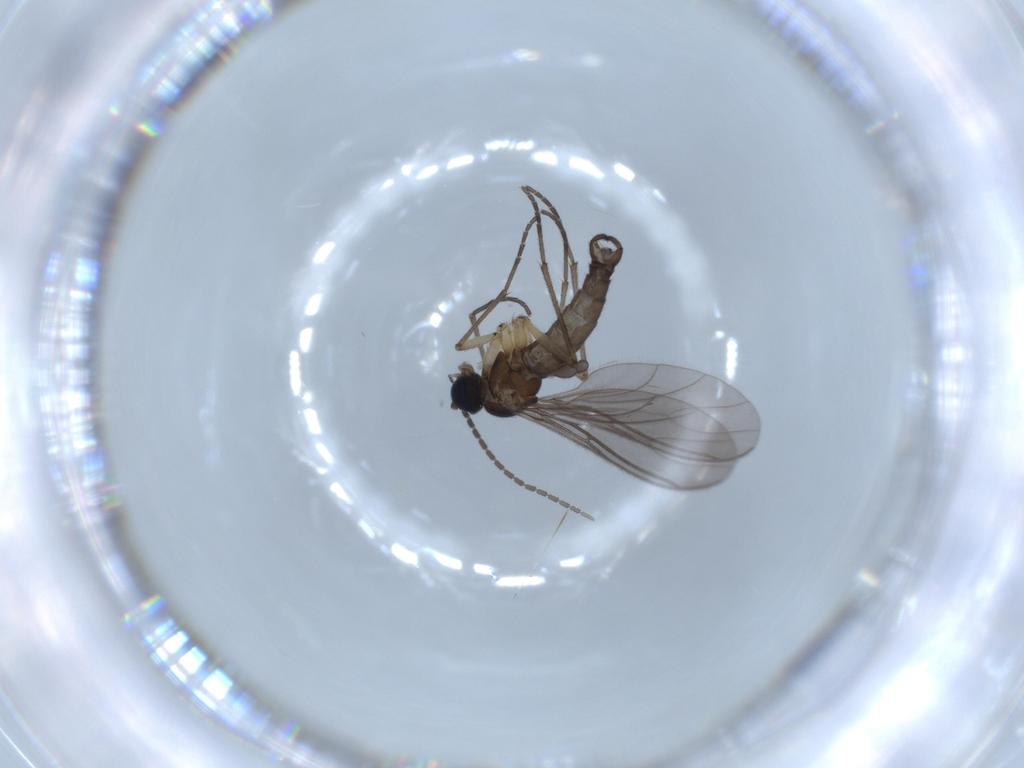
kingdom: Animalia
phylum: Arthropoda
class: Insecta
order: Diptera
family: Sciaridae
